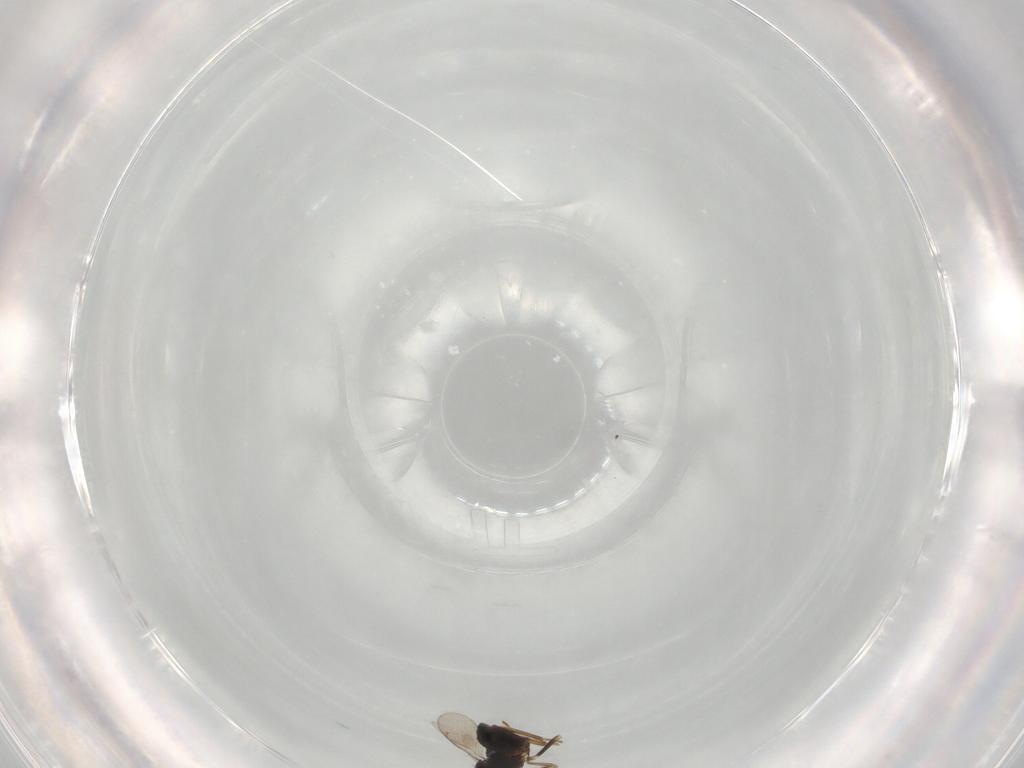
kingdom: Animalia
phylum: Arthropoda
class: Insecta
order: Hymenoptera
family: Eulophidae
